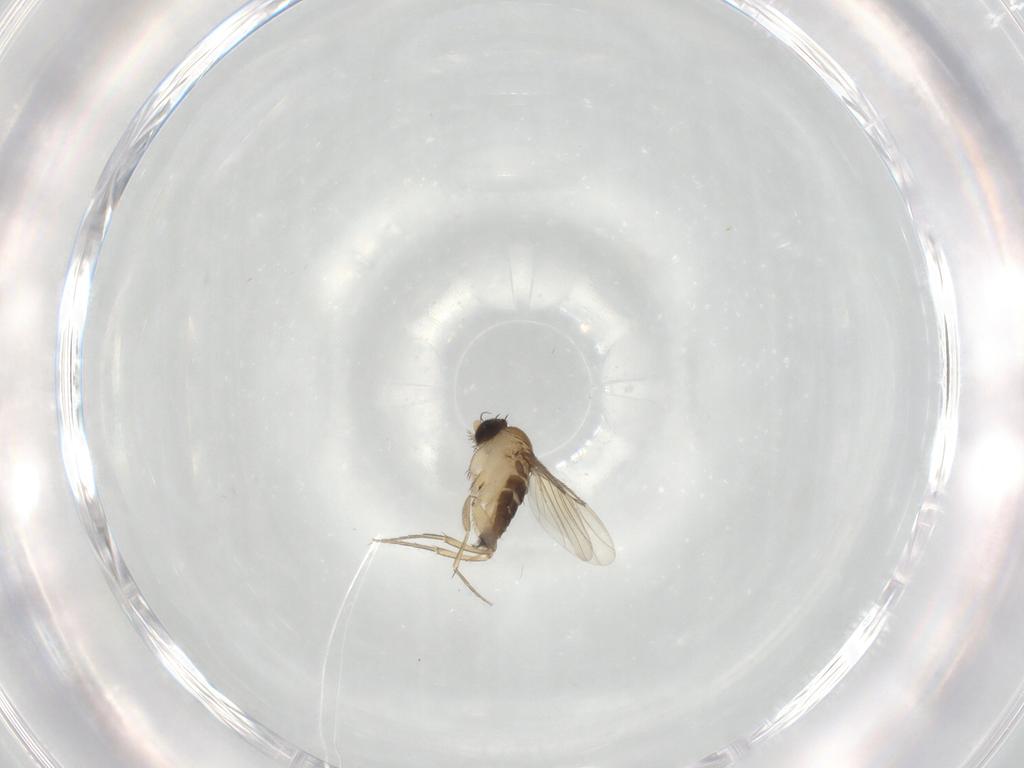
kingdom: Animalia
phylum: Arthropoda
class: Insecta
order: Diptera
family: Phoridae
